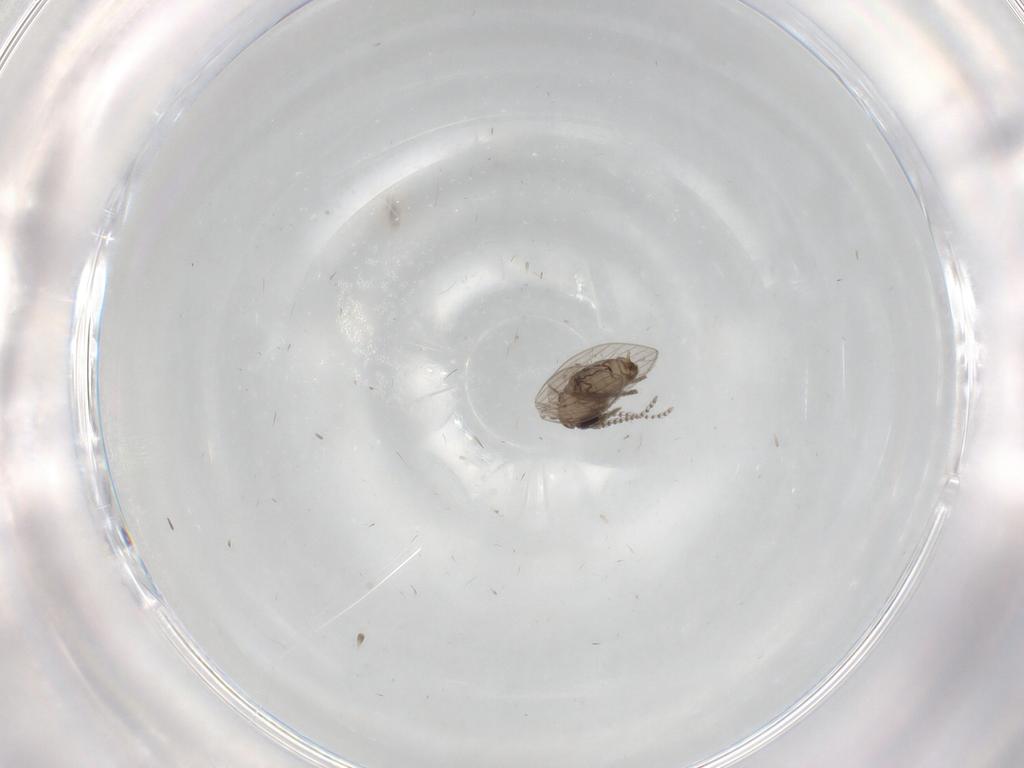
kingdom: Animalia
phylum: Arthropoda
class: Insecta
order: Diptera
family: Psychodidae
